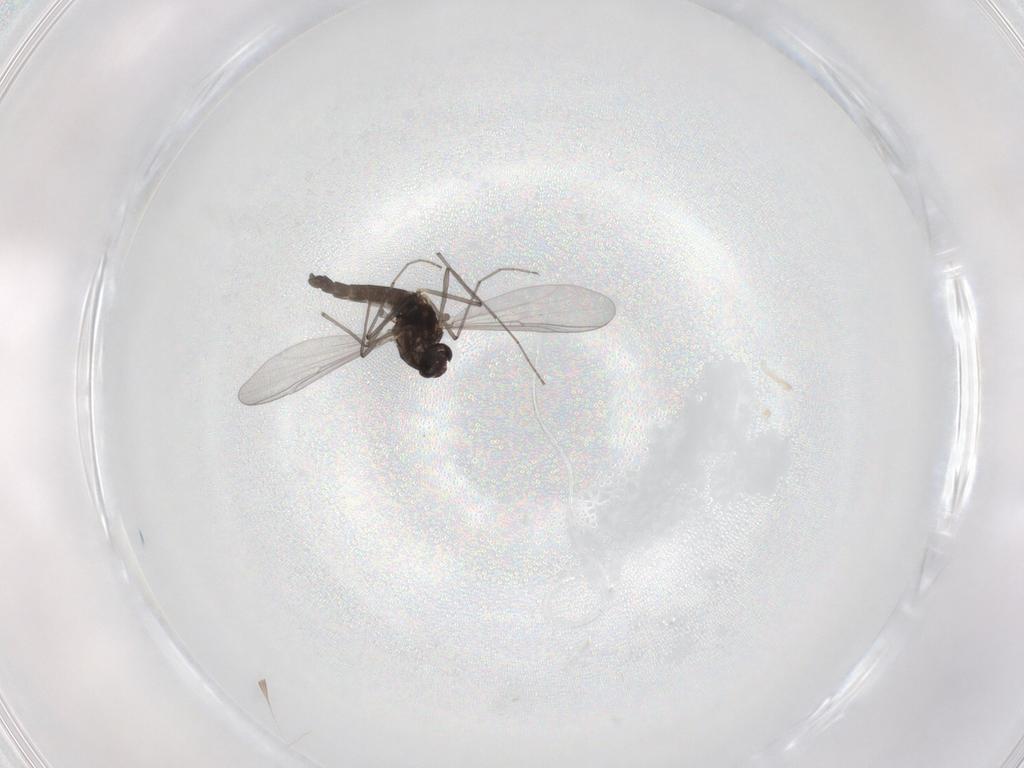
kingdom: Animalia
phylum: Arthropoda
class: Insecta
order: Diptera
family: Chironomidae
